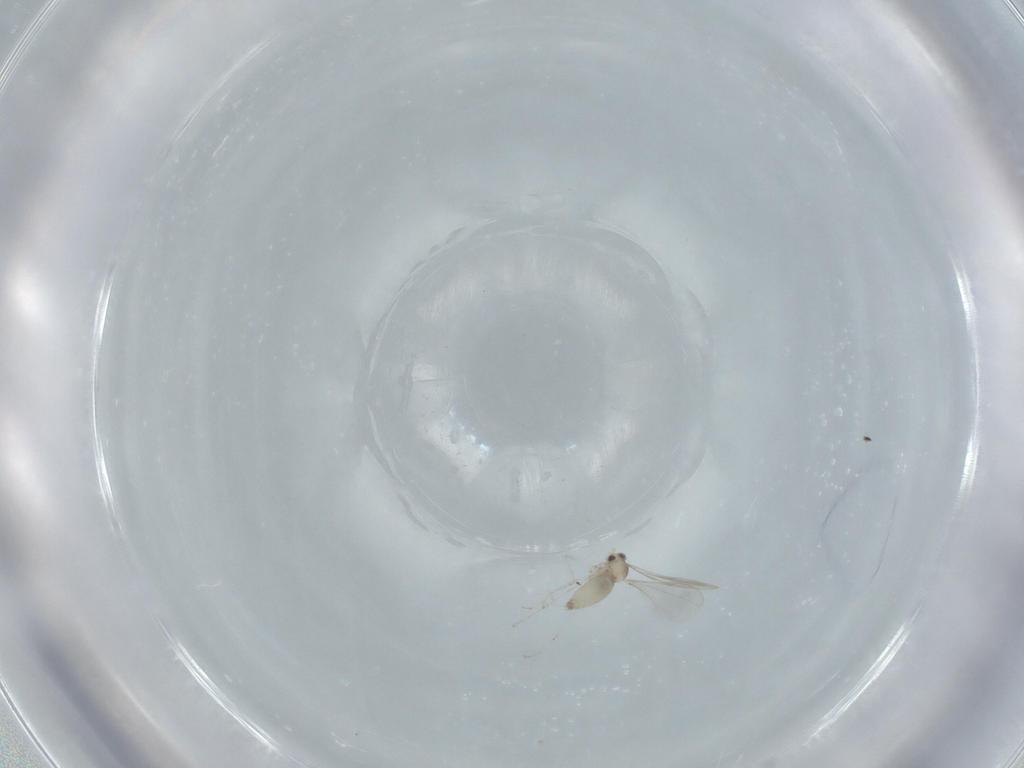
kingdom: Animalia
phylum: Arthropoda
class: Insecta
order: Diptera
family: Cecidomyiidae
